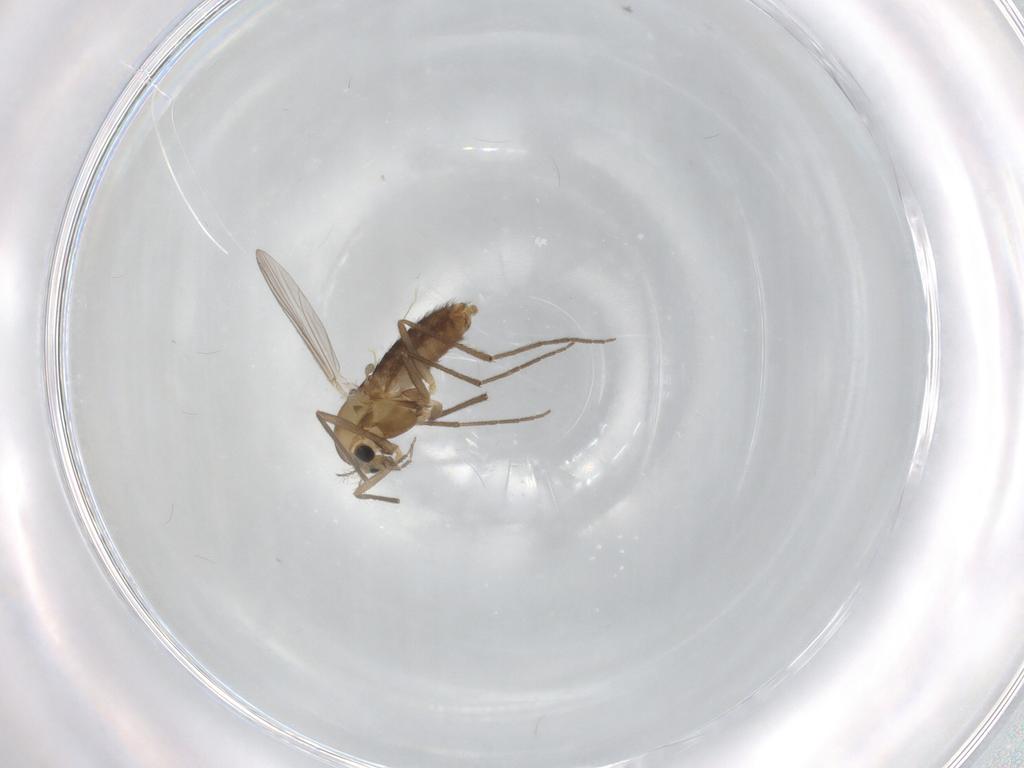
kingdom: Animalia
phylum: Arthropoda
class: Insecta
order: Diptera
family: Chironomidae
